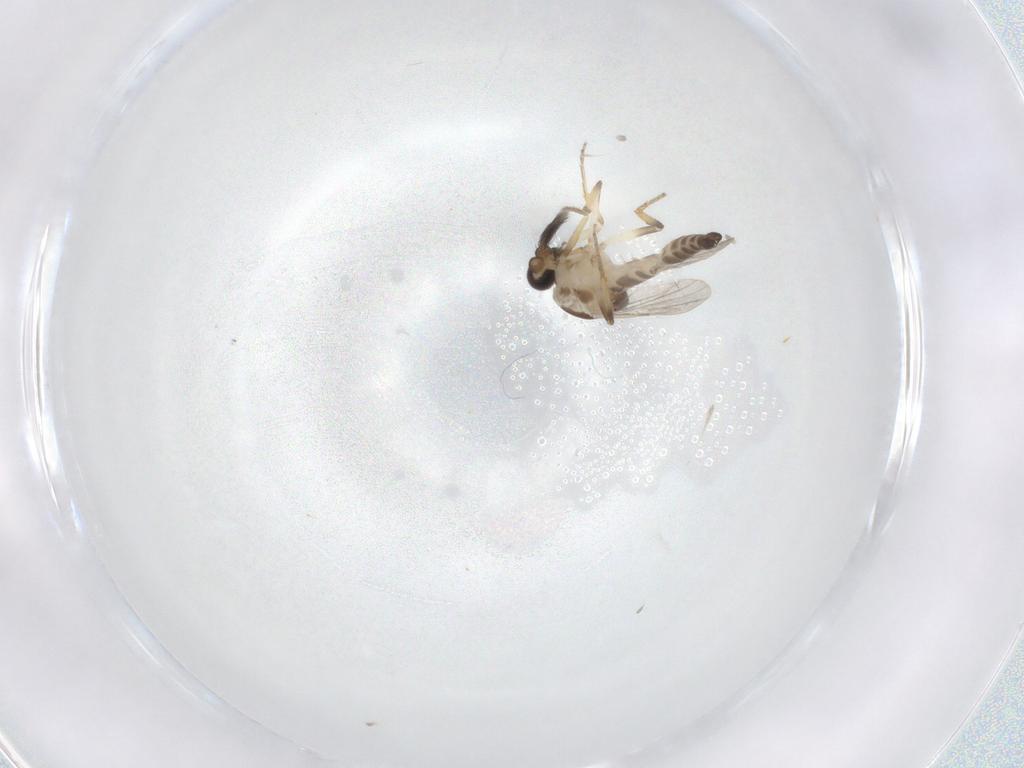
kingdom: Animalia
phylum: Arthropoda
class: Insecta
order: Diptera
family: Ceratopogonidae
